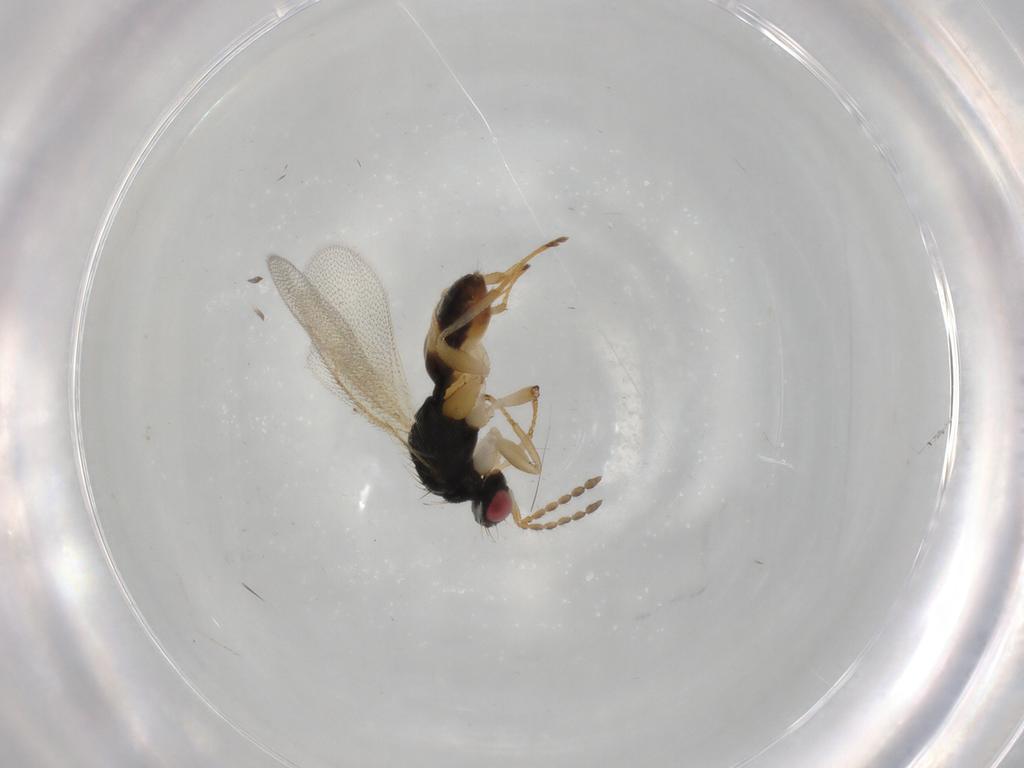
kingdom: Animalia
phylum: Arthropoda
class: Insecta
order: Hymenoptera
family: Eulophidae
